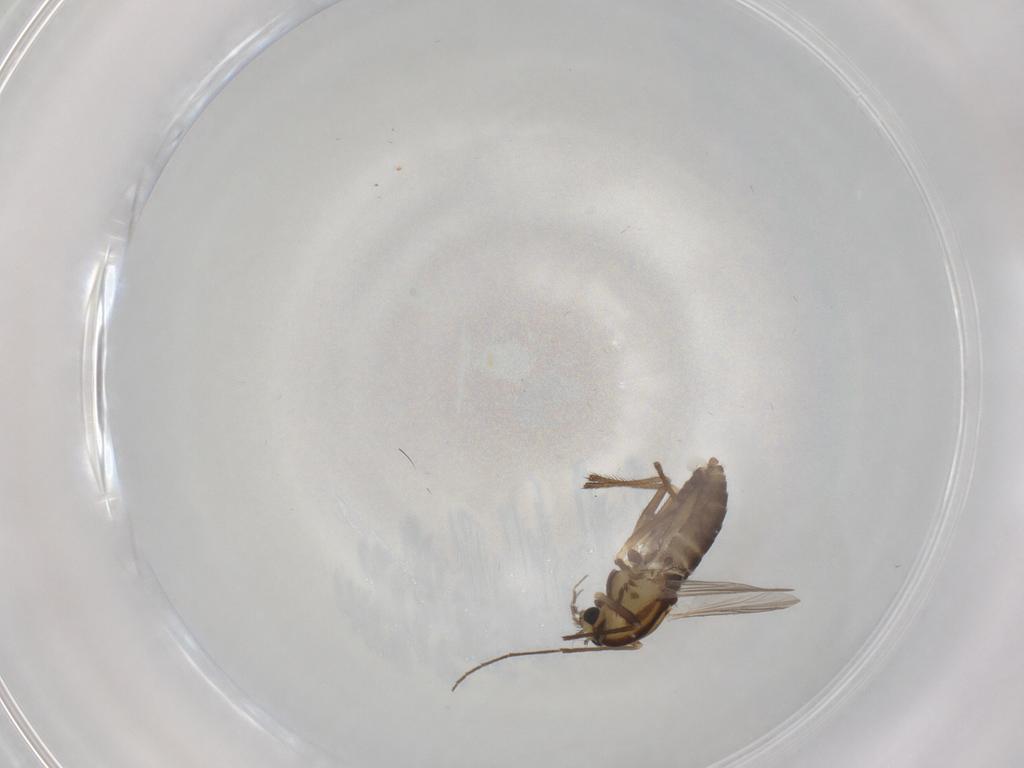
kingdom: Animalia
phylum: Arthropoda
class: Insecta
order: Diptera
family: Chironomidae
